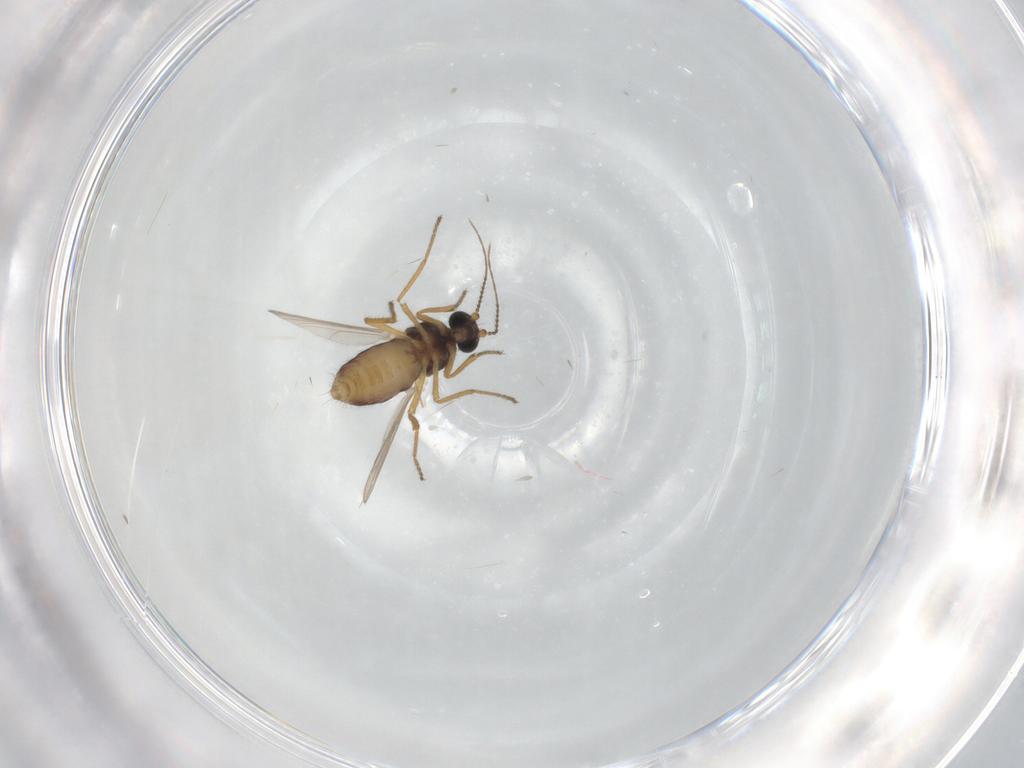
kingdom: Animalia
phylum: Arthropoda
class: Insecta
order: Diptera
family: Ceratopogonidae
